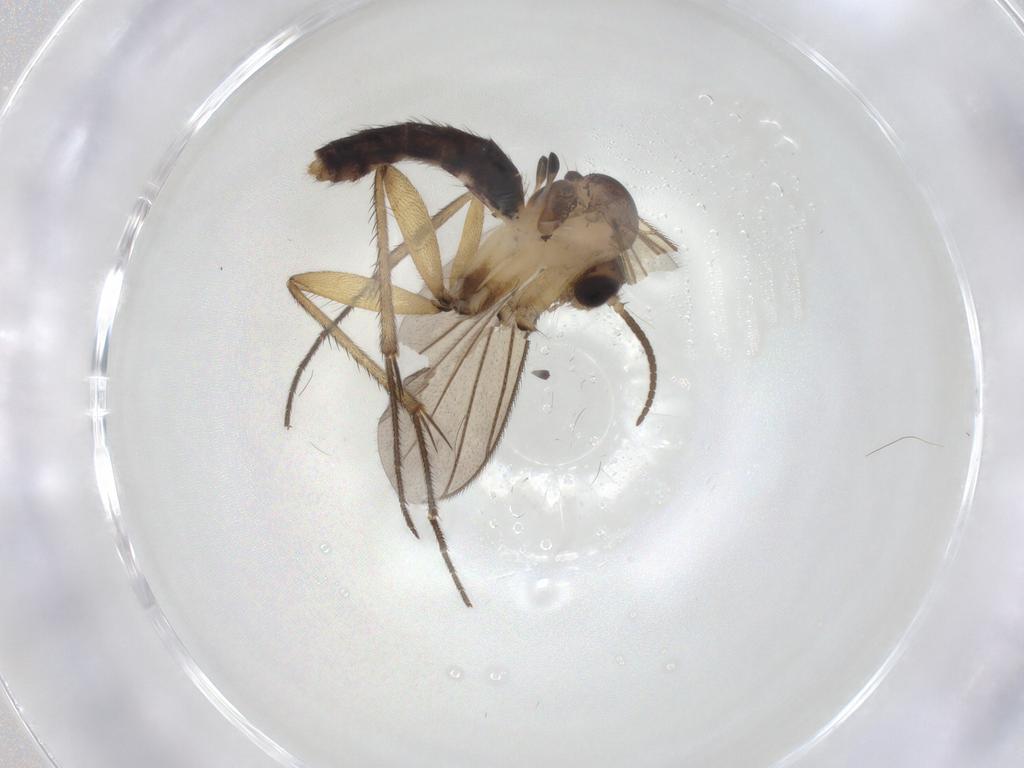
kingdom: Animalia
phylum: Arthropoda
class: Insecta
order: Diptera
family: Mycetophilidae
